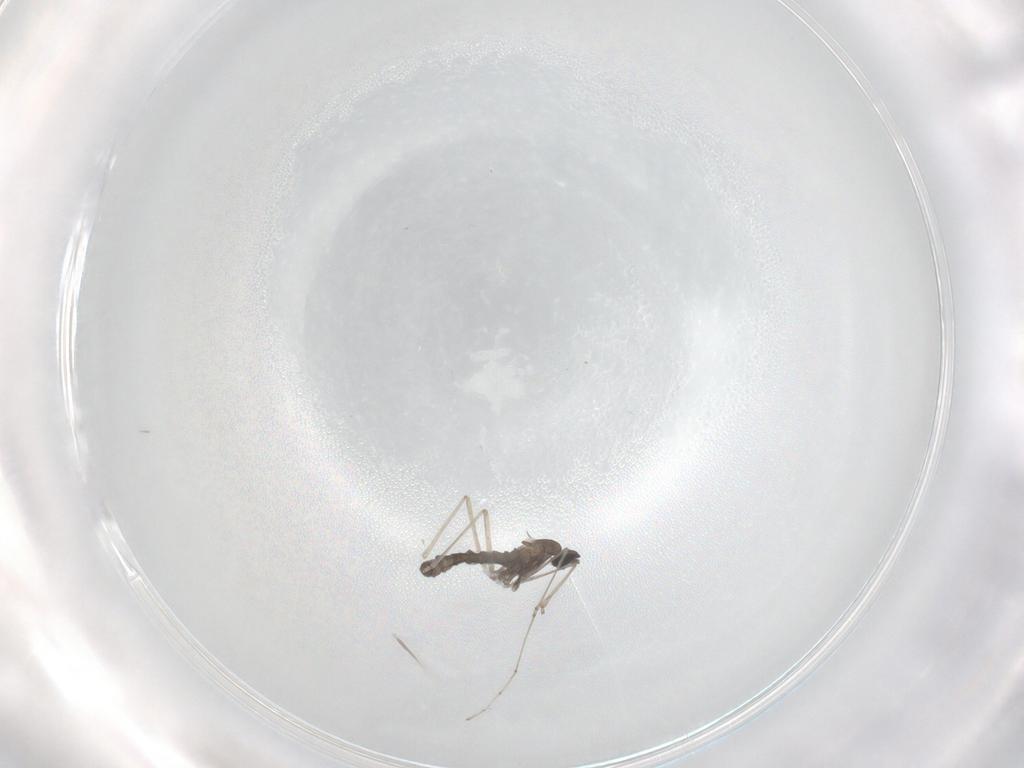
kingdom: Animalia
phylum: Arthropoda
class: Insecta
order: Diptera
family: Cecidomyiidae
